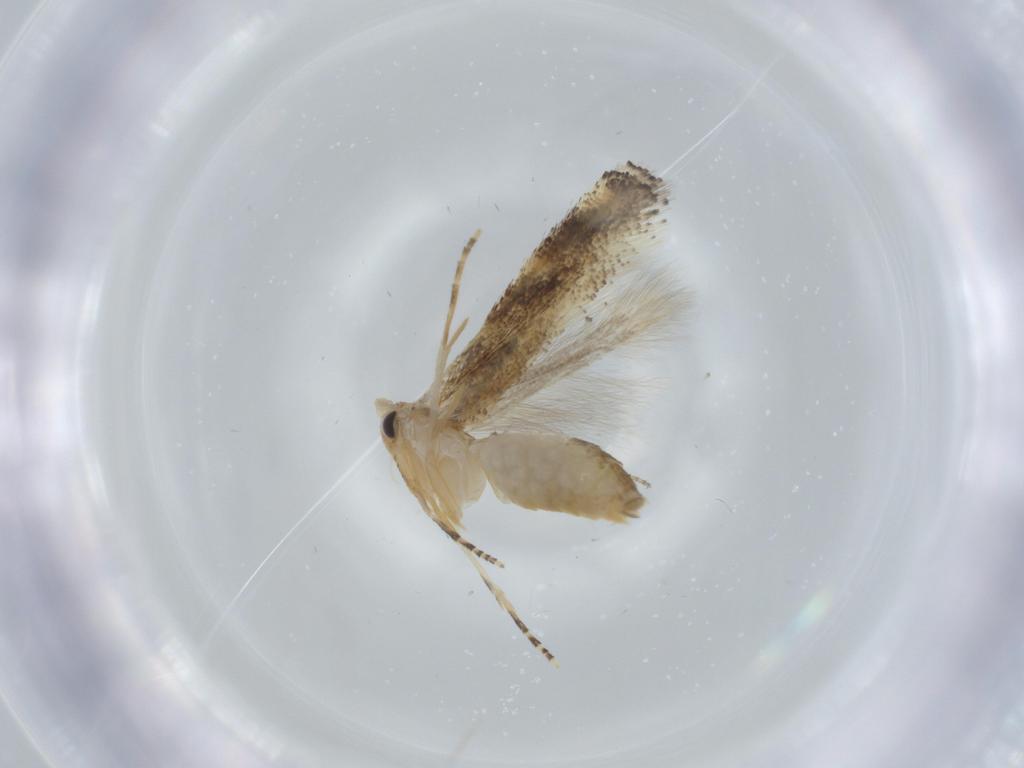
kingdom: Animalia
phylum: Arthropoda
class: Insecta
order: Lepidoptera
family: Bucculatricidae
